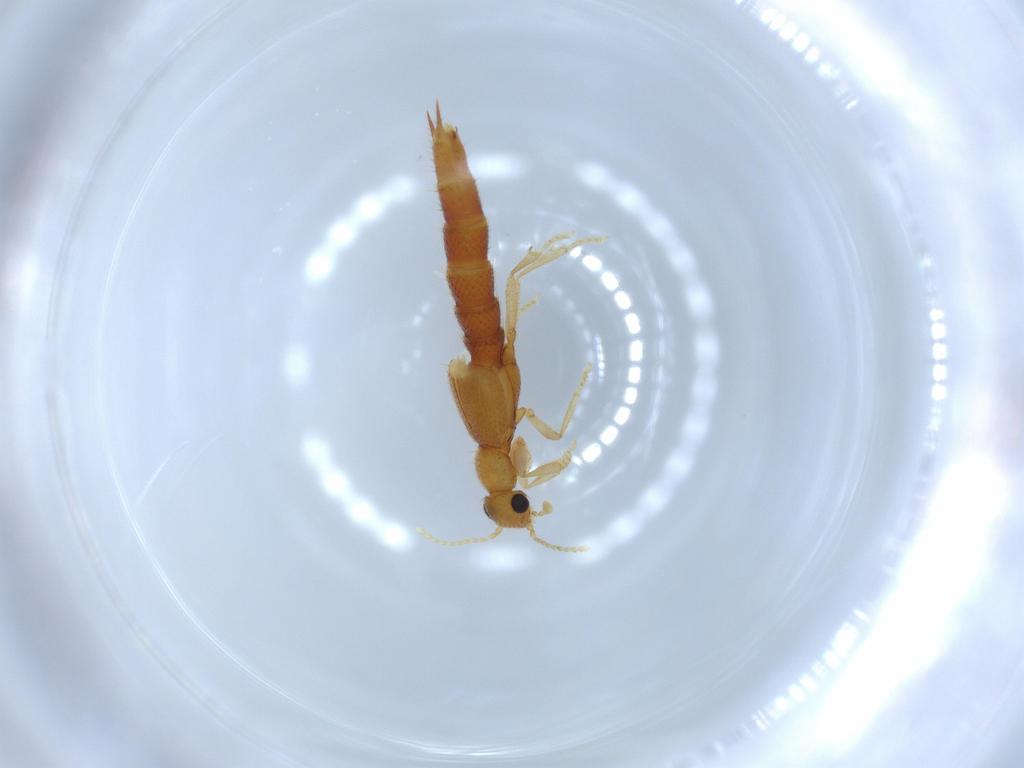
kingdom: Animalia
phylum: Arthropoda
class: Insecta
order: Coleoptera
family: Staphylinidae
